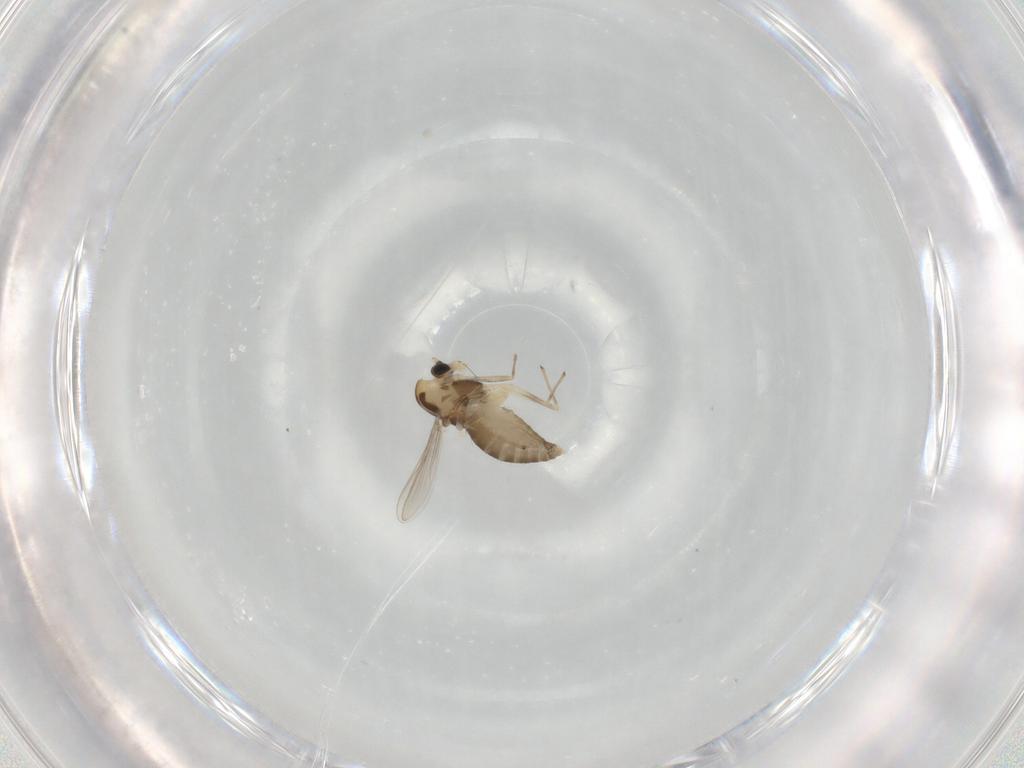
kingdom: Animalia
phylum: Arthropoda
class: Insecta
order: Diptera
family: Chironomidae
